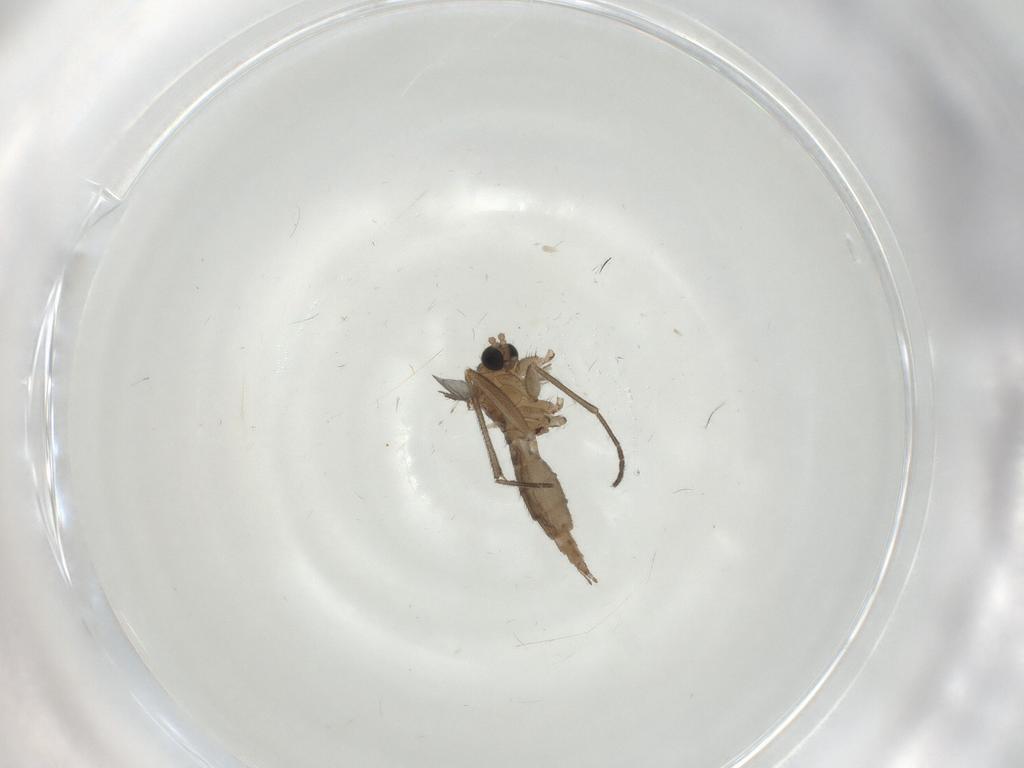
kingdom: Animalia
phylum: Arthropoda
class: Insecta
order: Diptera
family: Sciaridae
